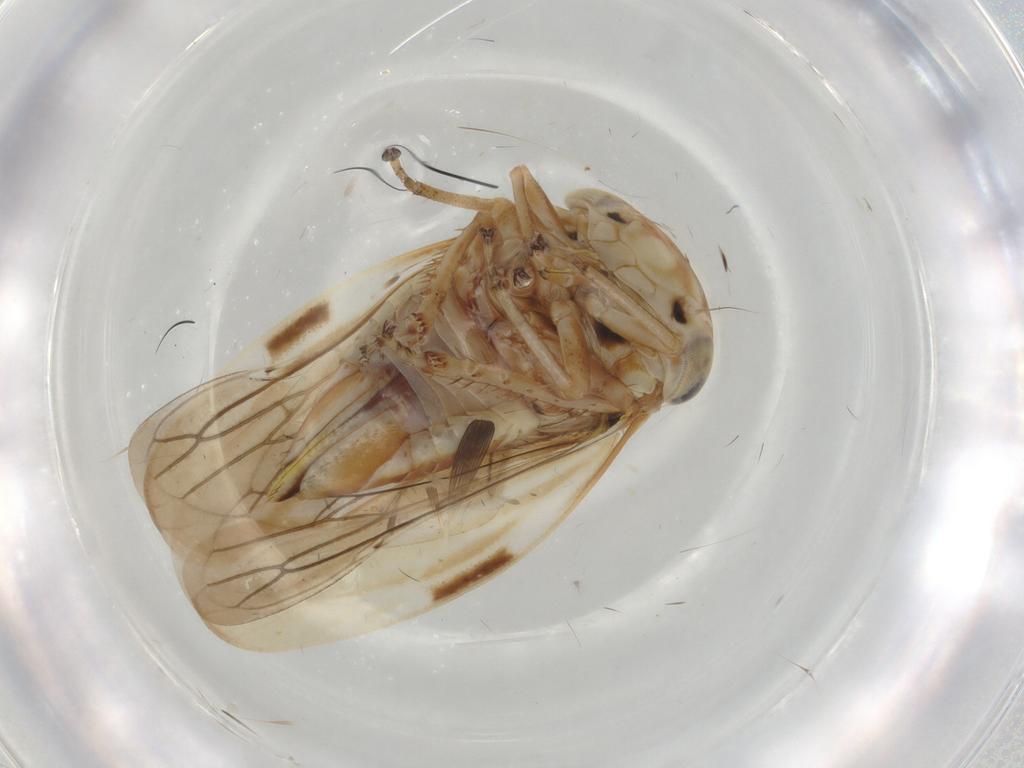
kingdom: Animalia
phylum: Arthropoda
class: Insecta
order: Hemiptera
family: Cicadellidae
